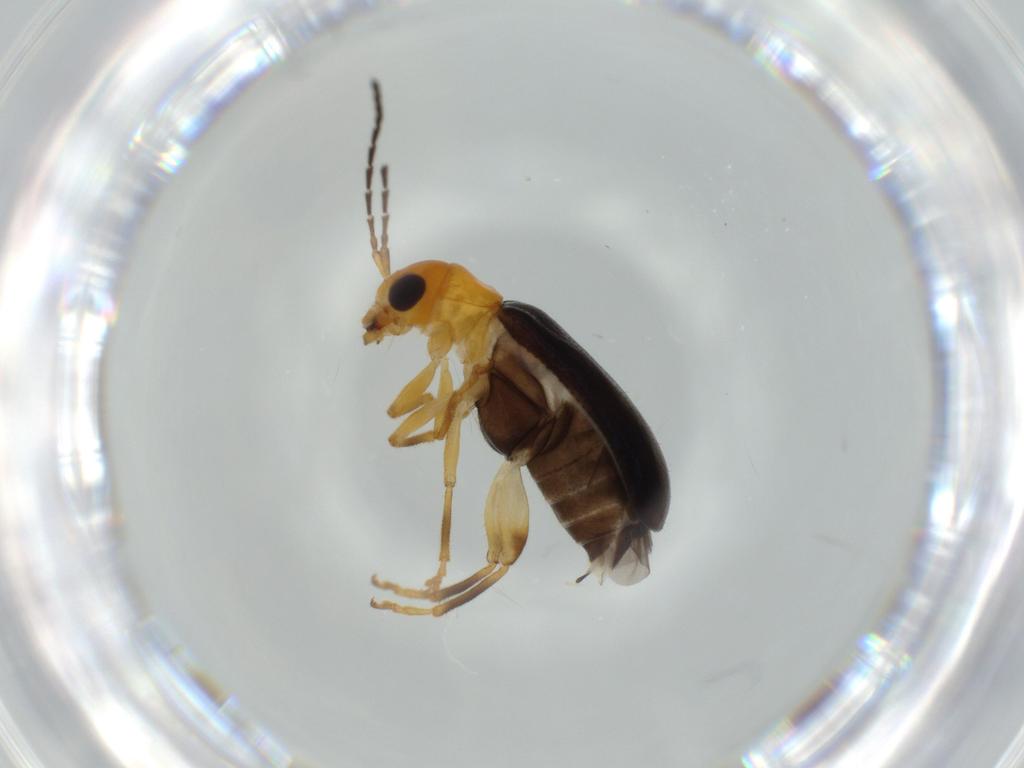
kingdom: Animalia
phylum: Arthropoda
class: Insecta
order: Coleoptera
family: Chrysomelidae
